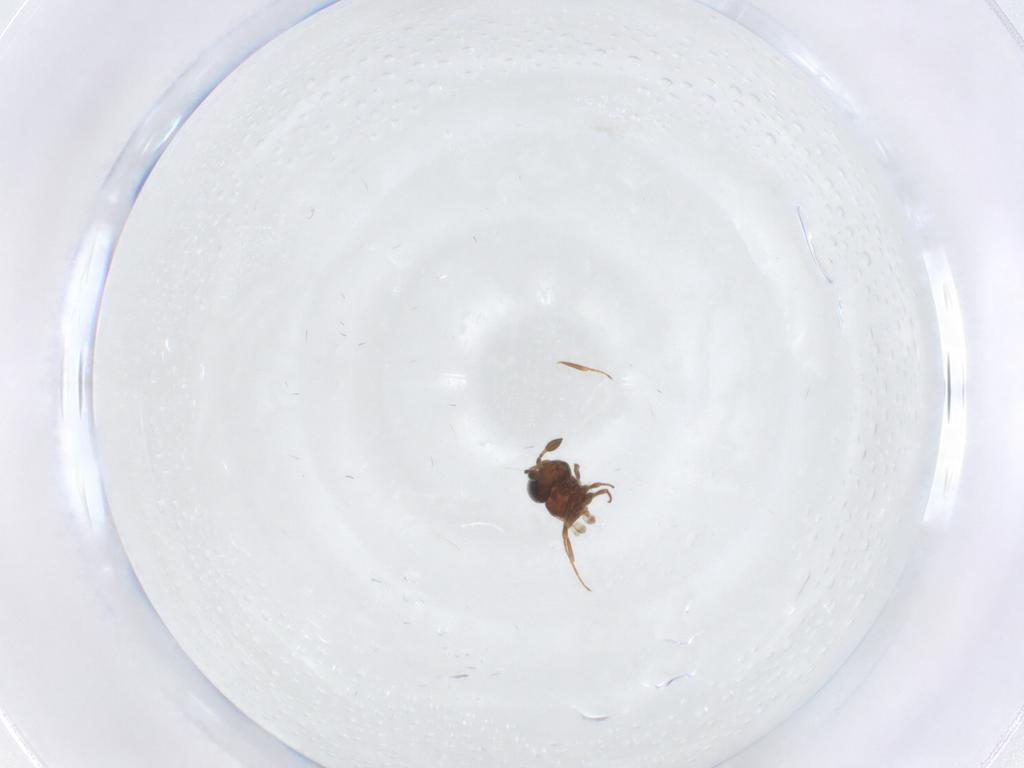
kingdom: Animalia
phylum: Arthropoda
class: Insecta
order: Hymenoptera
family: Scelionidae
